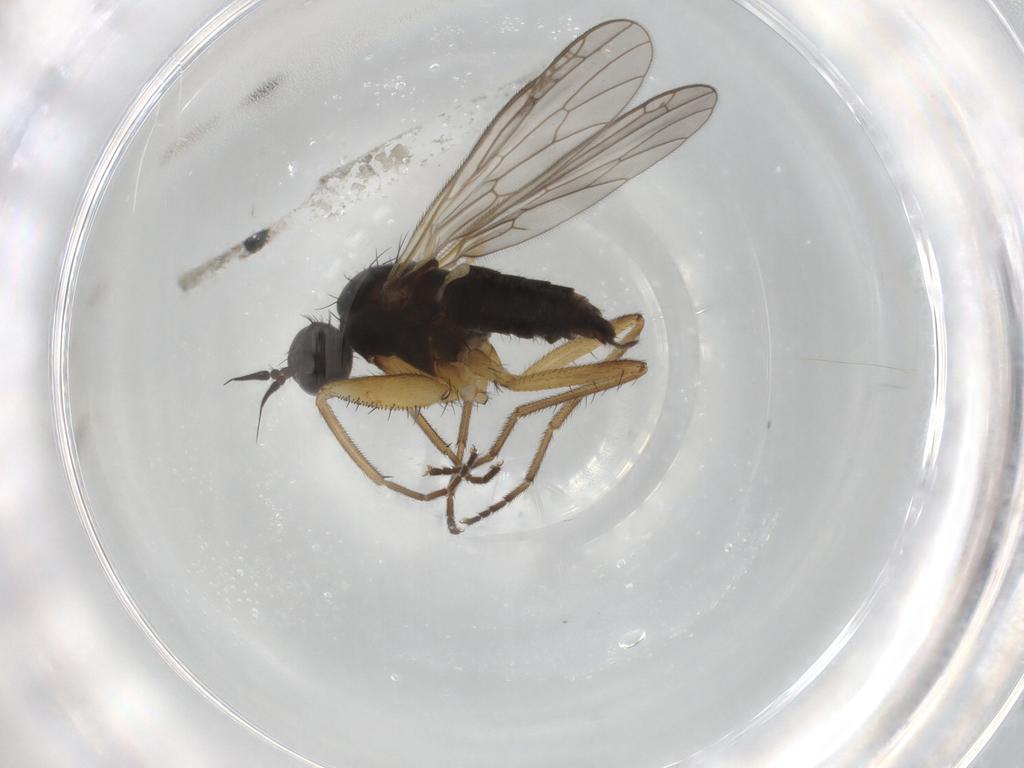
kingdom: Animalia
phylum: Arthropoda
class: Insecta
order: Diptera
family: Empididae
